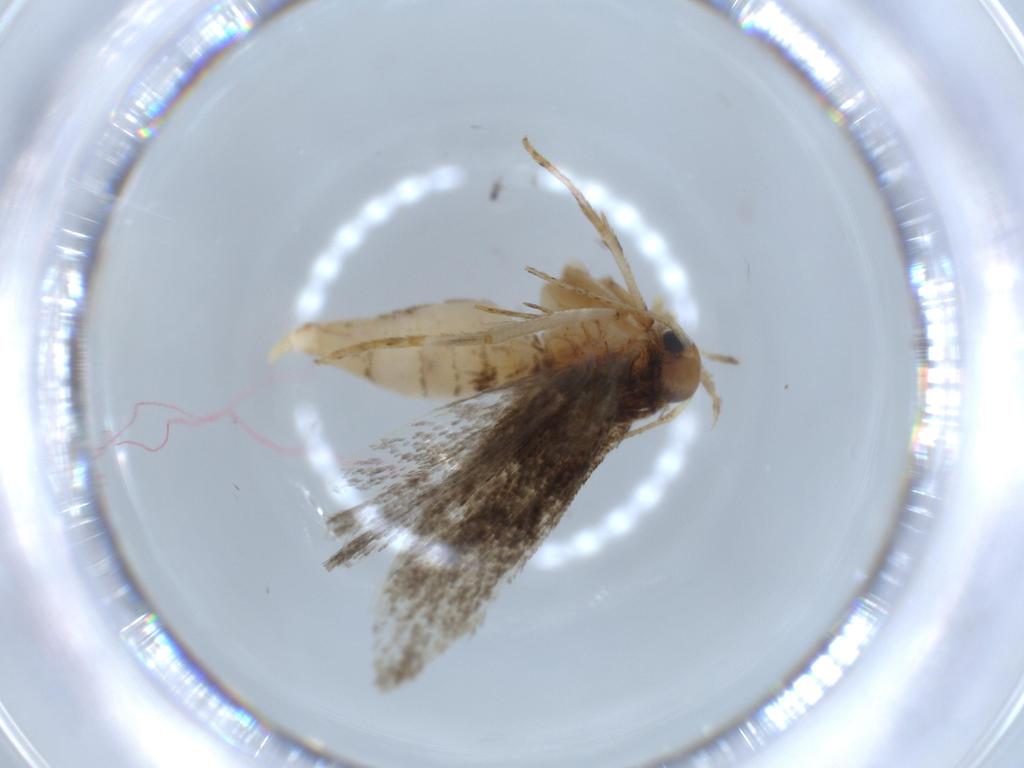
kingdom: Animalia
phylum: Arthropoda
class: Insecta
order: Lepidoptera
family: Gelechiidae
